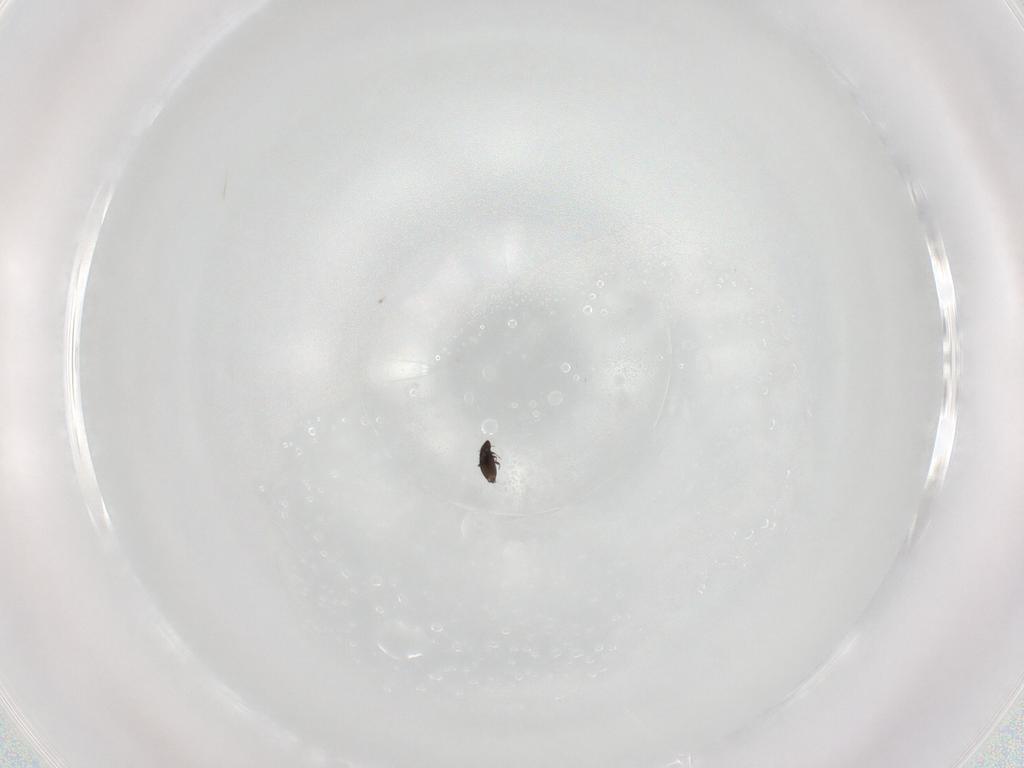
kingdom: Animalia
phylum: Arthropoda
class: Insecta
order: Coleoptera
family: Staphylinidae
